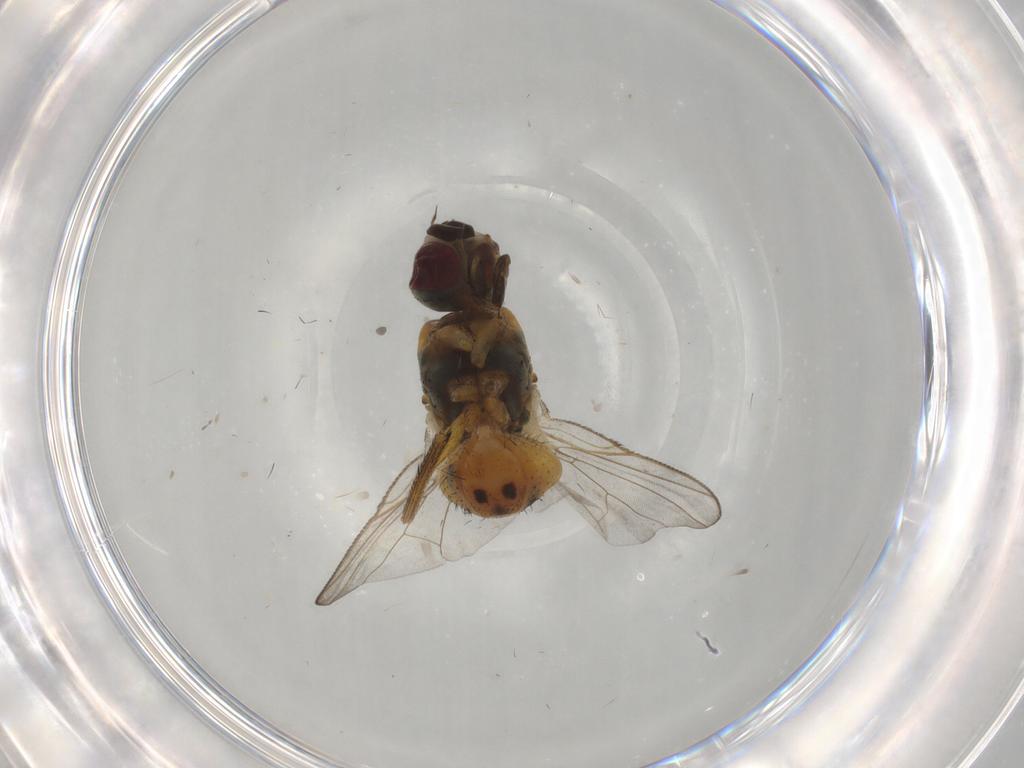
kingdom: Animalia
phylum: Arthropoda
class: Insecta
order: Diptera
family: Muscidae
